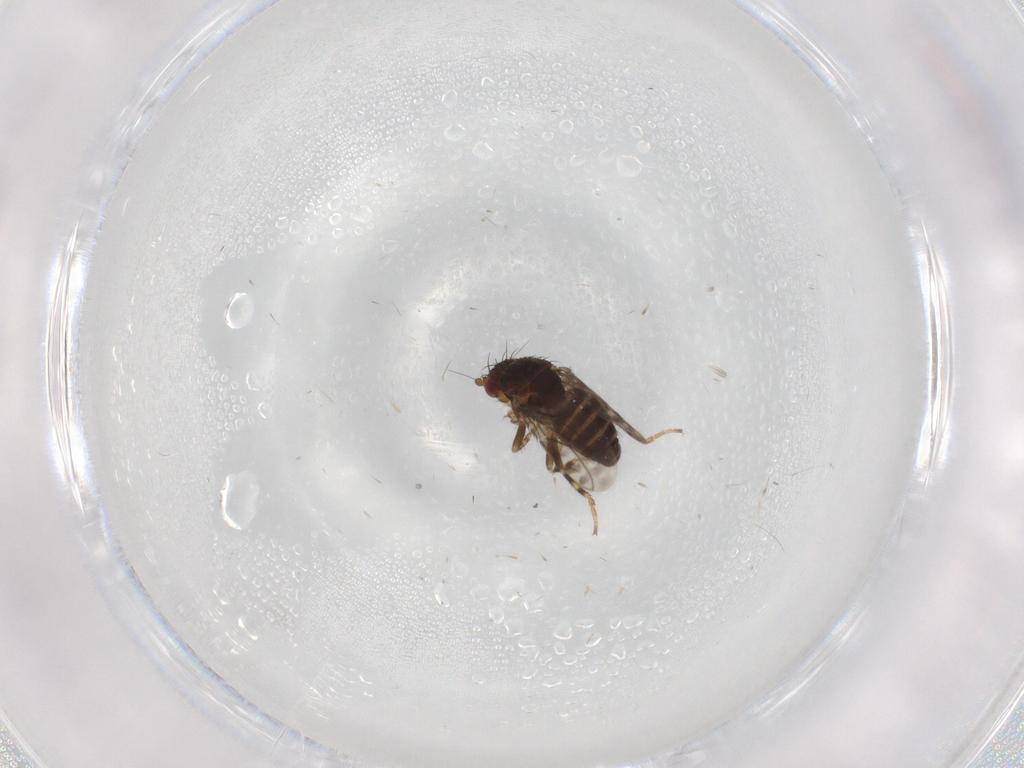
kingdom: Animalia
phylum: Arthropoda
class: Insecta
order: Diptera
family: Sphaeroceridae
